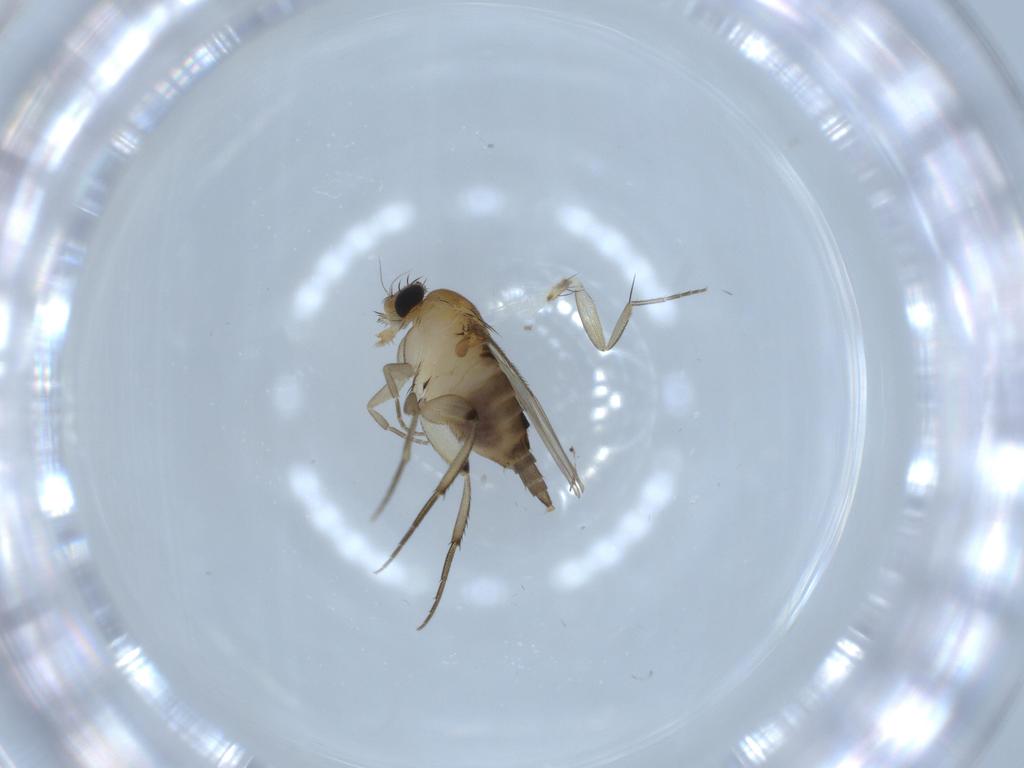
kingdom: Animalia
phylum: Arthropoda
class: Insecta
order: Diptera
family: Phoridae
